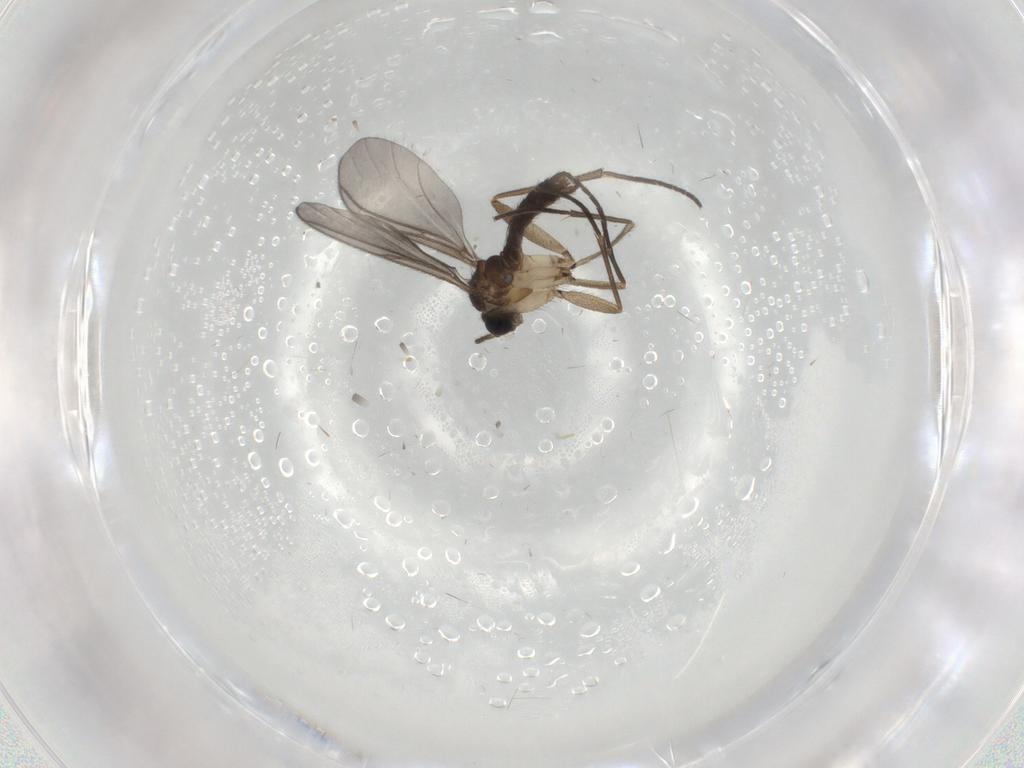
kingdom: Animalia
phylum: Arthropoda
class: Insecta
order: Diptera
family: Sciaridae
